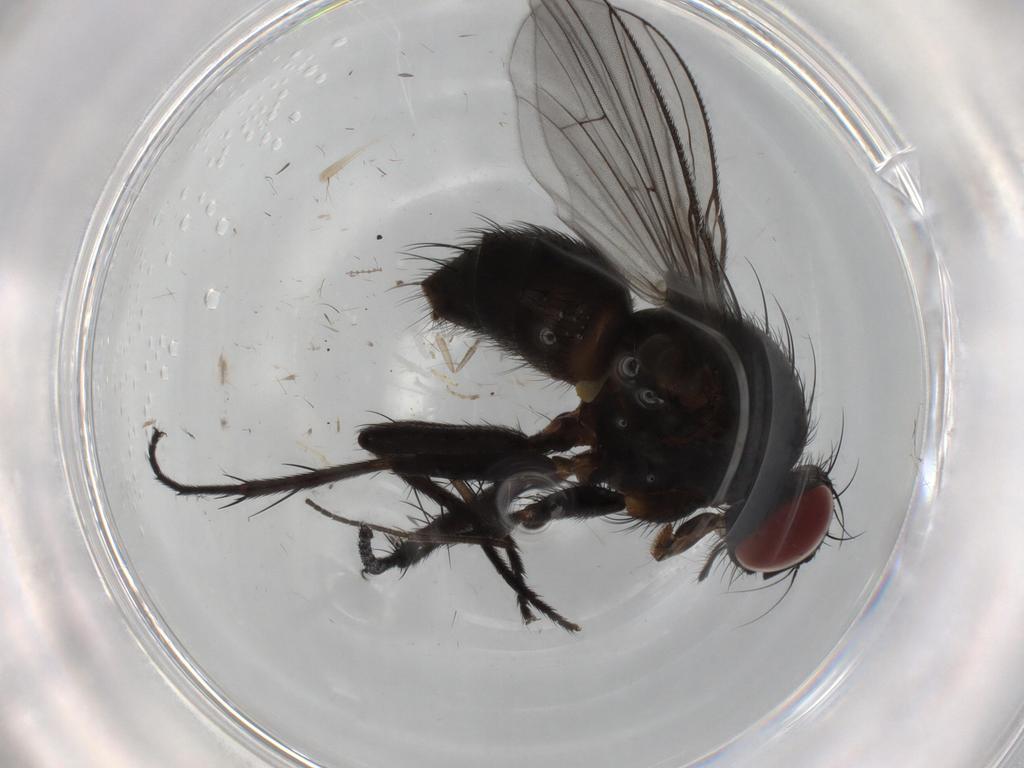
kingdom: Animalia
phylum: Arthropoda
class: Insecta
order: Diptera
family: Muscidae
